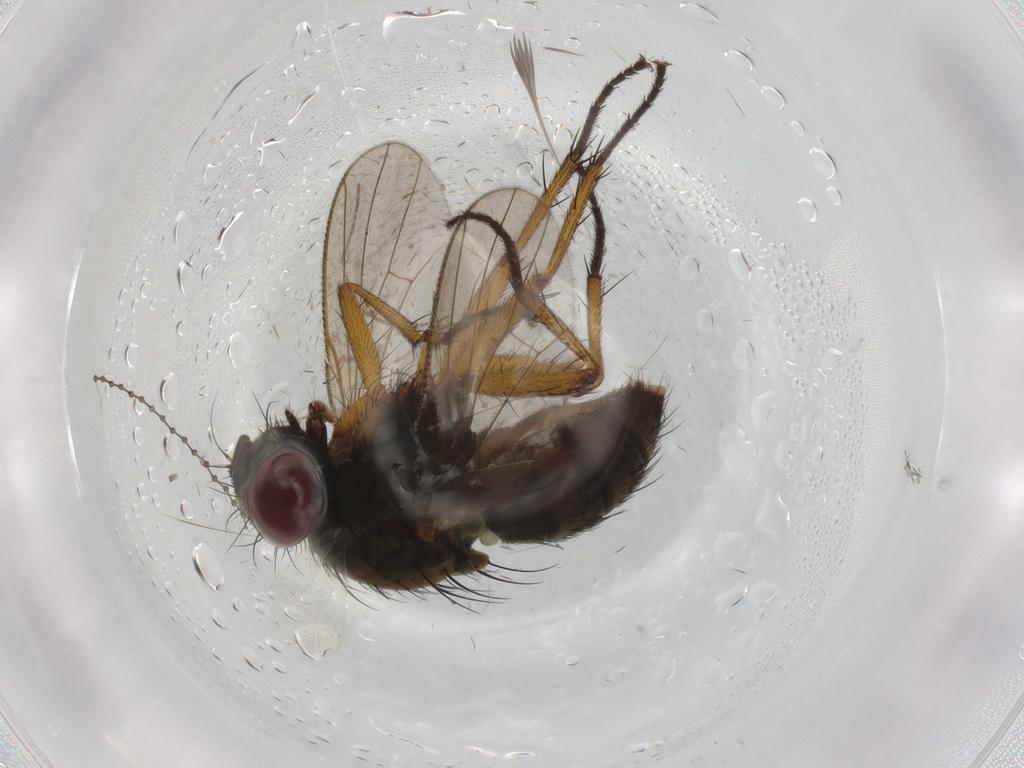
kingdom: Animalia
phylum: Arthropoda
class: Insecta
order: Diptera
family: Muscidae
